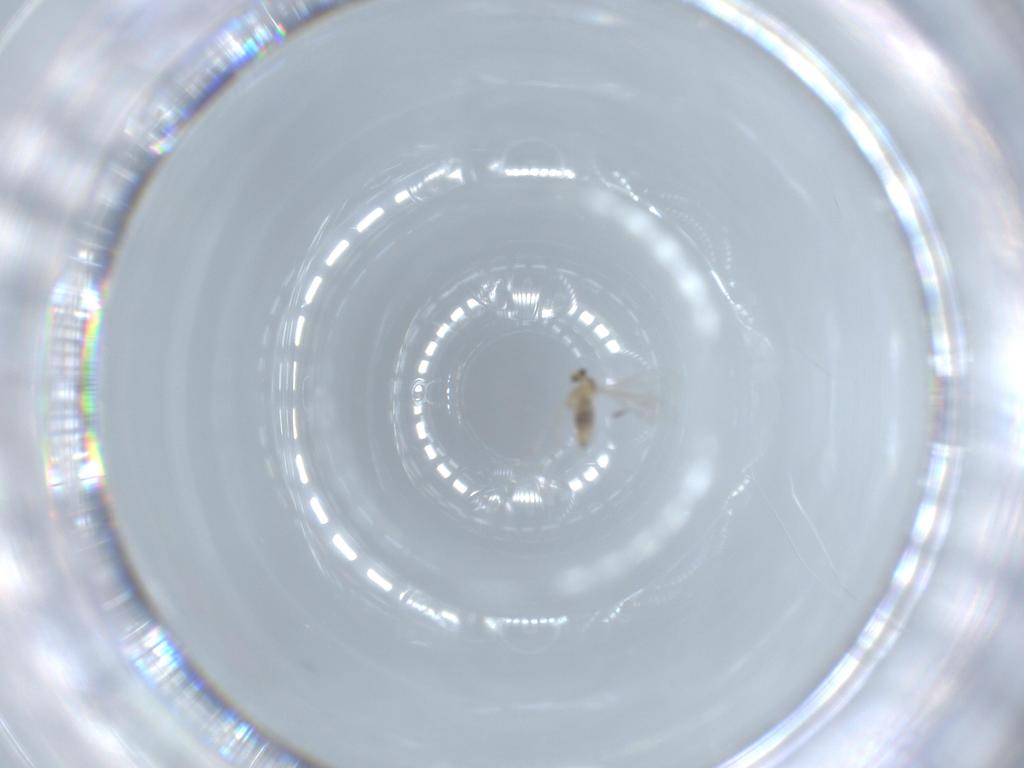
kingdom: Animalia
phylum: Arthropoda
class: Insecta
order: Diptera
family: Cecidomyiidae
